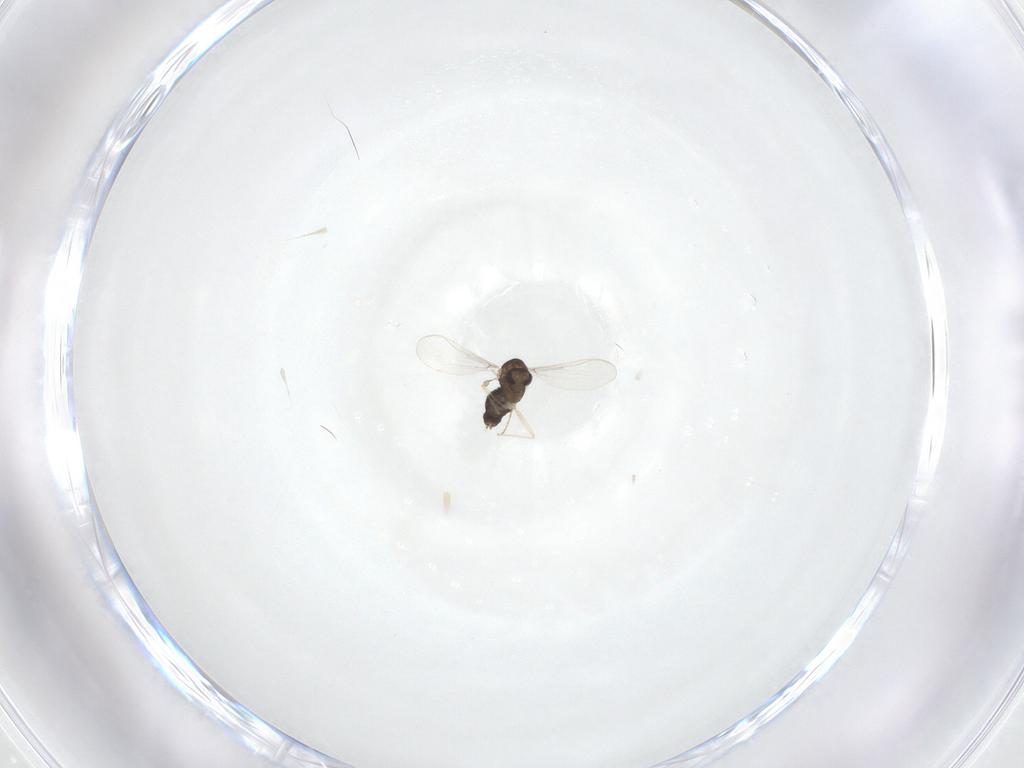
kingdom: Animalia
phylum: Arthropoda
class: Insecta
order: Diptera
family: Chironomidae
